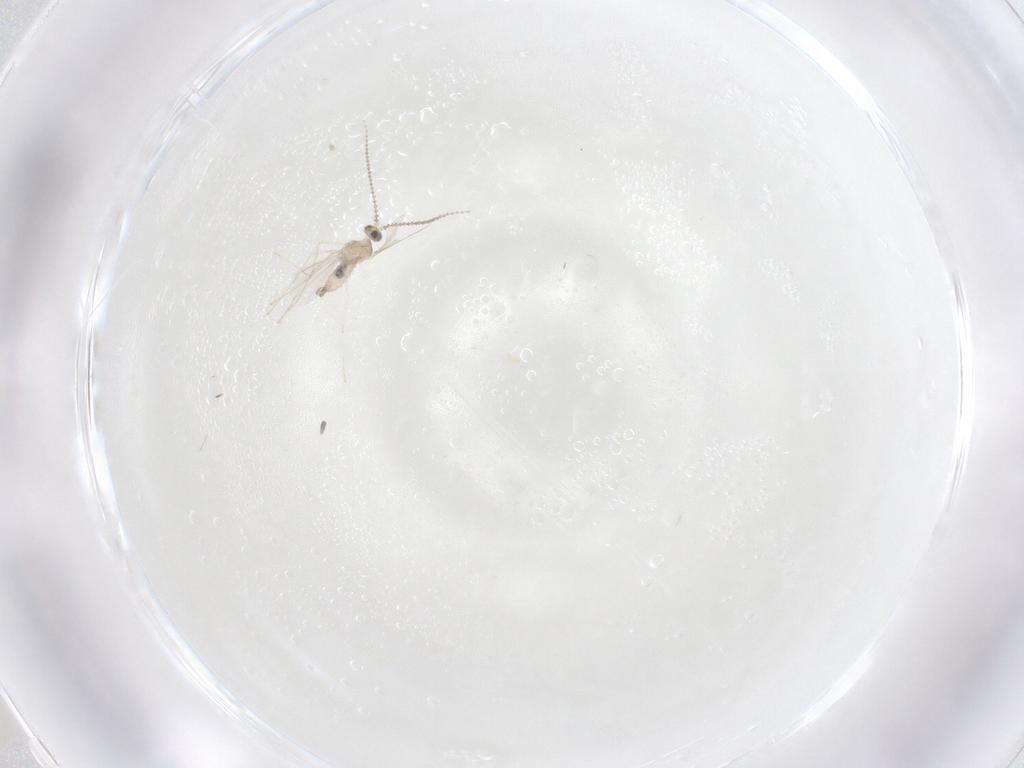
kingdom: Animalia
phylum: Arthropoda
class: Insecta
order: Diptera
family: Cecidomyiidae
